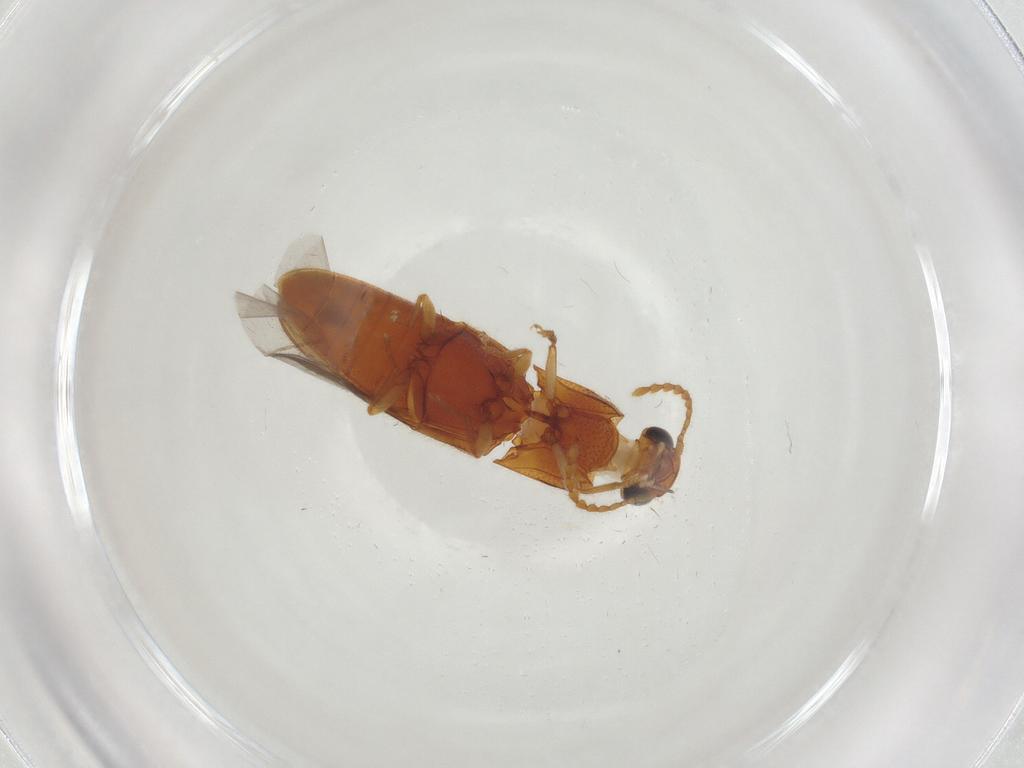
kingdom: Animalia
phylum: Arthropoda
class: Insecta
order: Coleoptera
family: Elateridae
